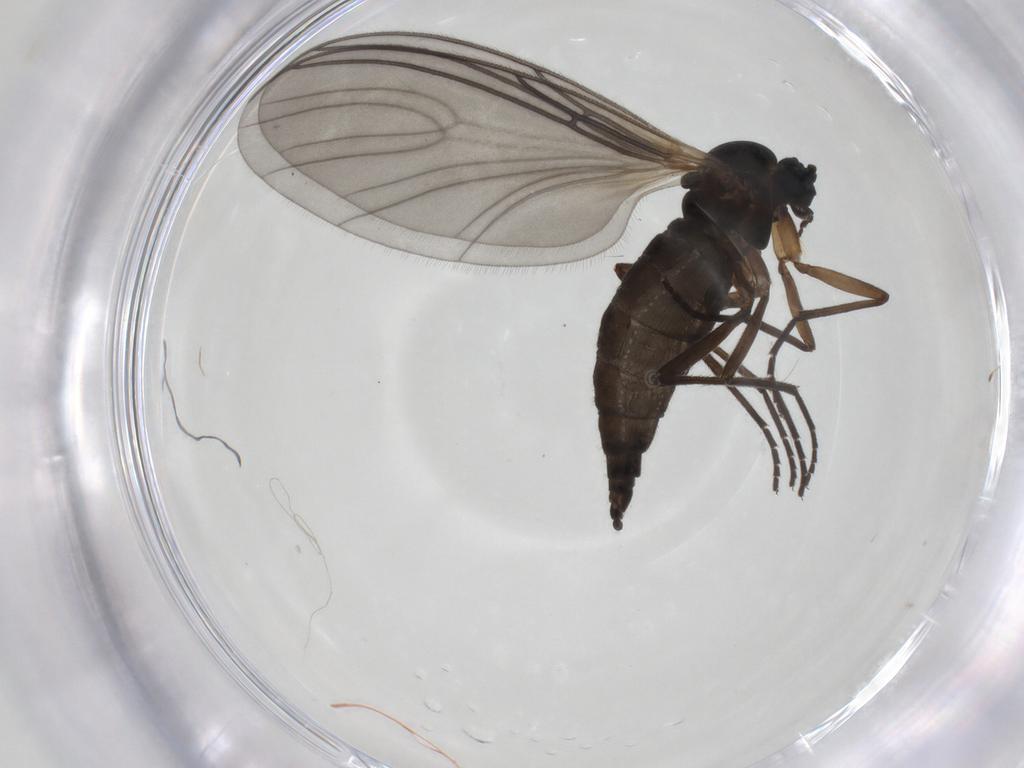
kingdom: Animalia
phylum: Arthropoda
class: Insecta
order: Diptera
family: Sciaridae
